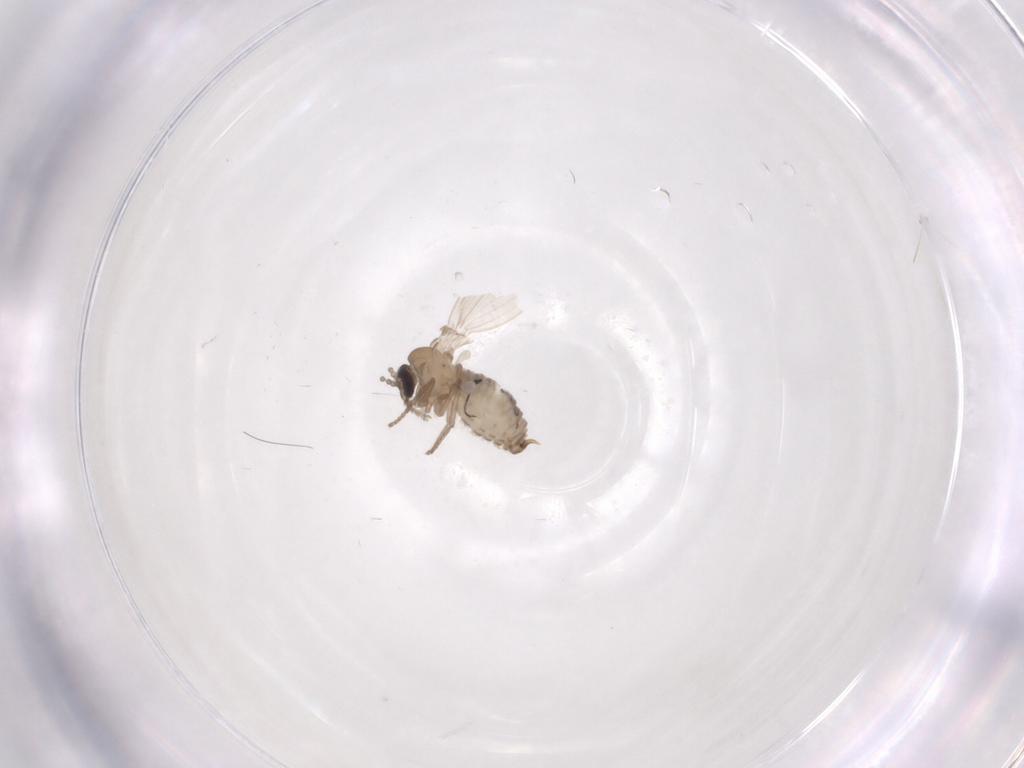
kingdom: Animalia
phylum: Arthropoda
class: Insecta
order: Diptera
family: Psychodidae
